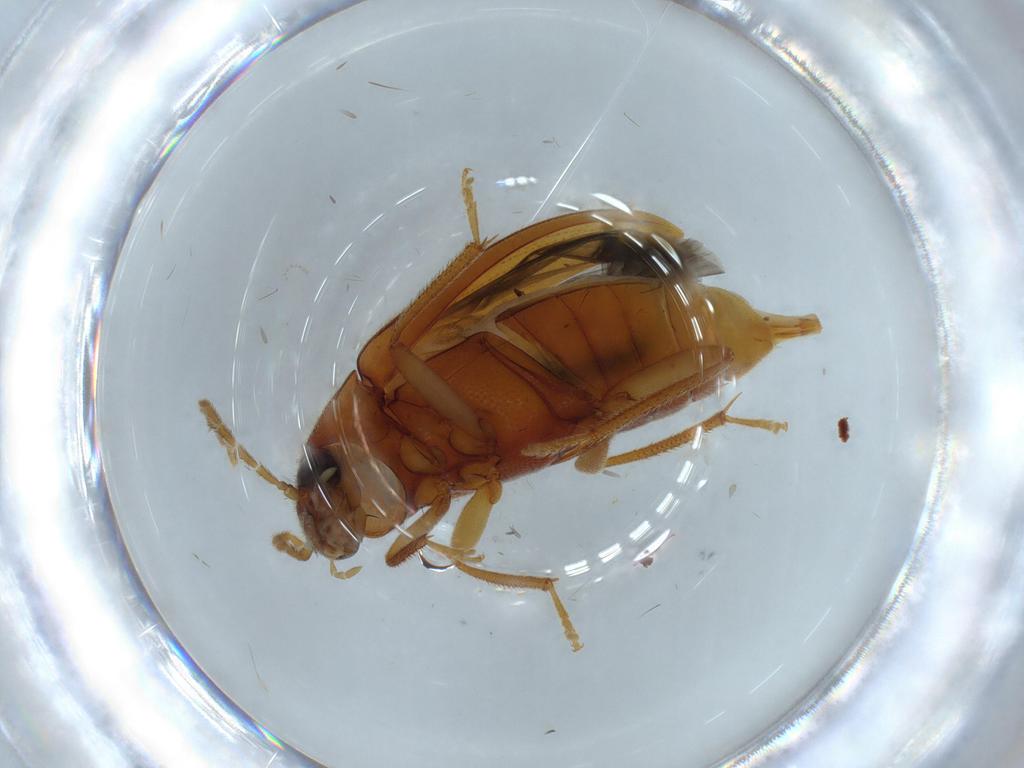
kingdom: Animalia
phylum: Arthropoda
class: Insecta
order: Coleoptera
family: Ptilodactylidae
